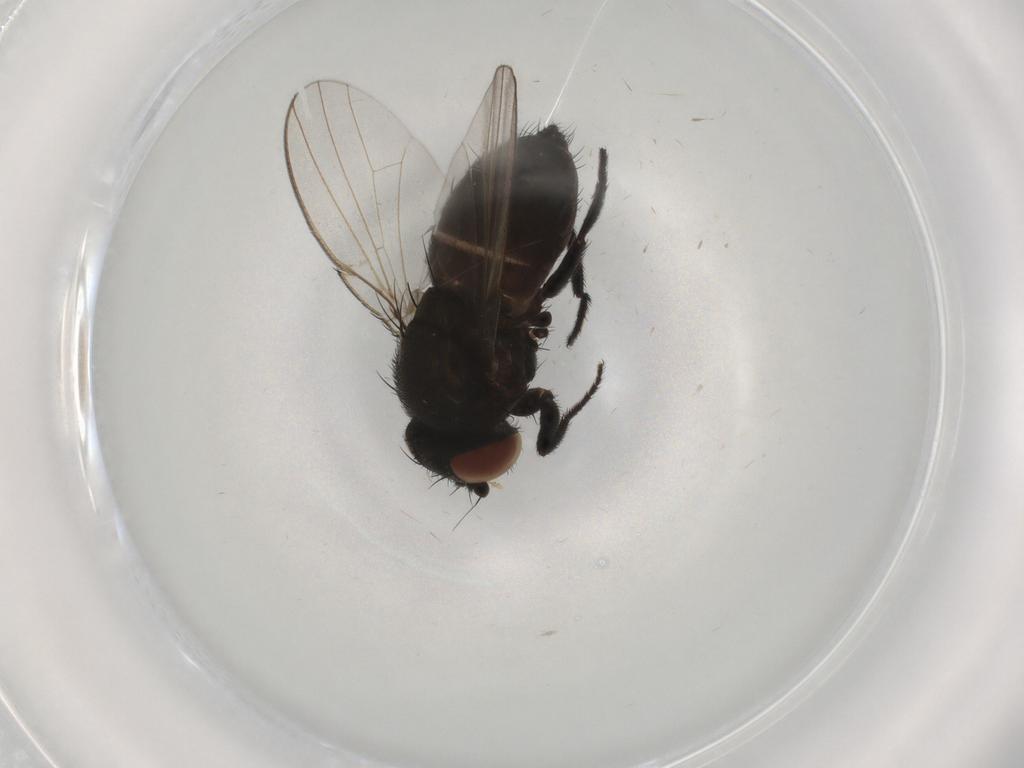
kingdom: Animalia
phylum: Arthropoda
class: Insecta
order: Diptera
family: Milichiidae
